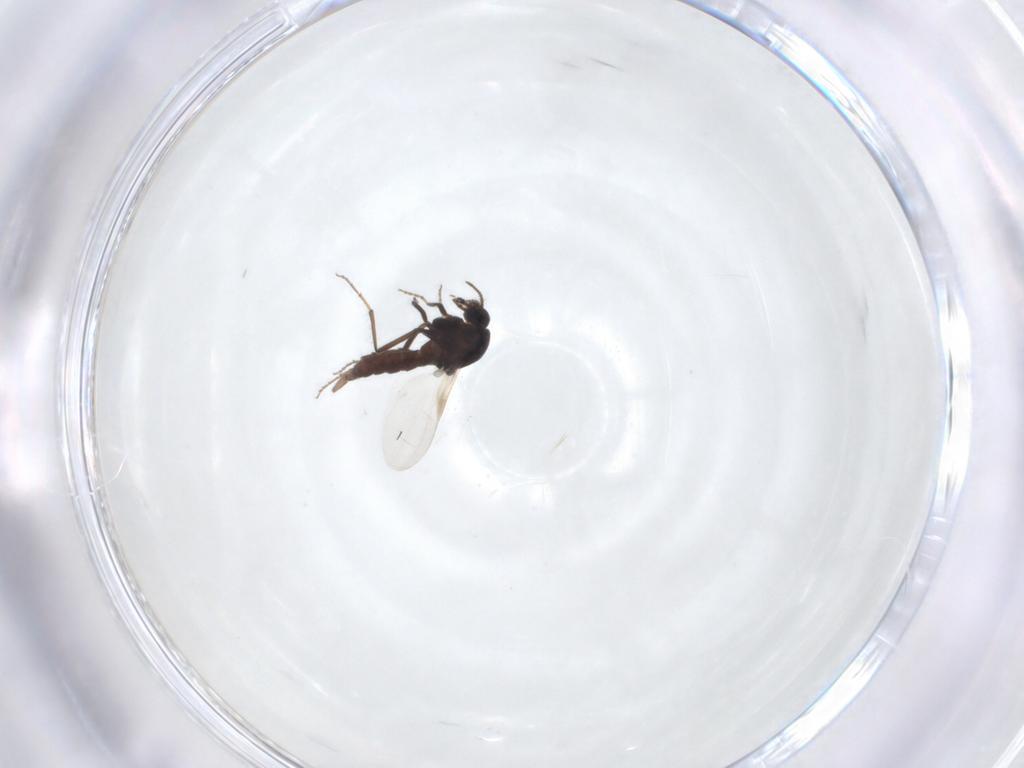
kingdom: Animalia
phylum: Arthropoda
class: Insecta
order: Diptera
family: Ceratopogonidae
